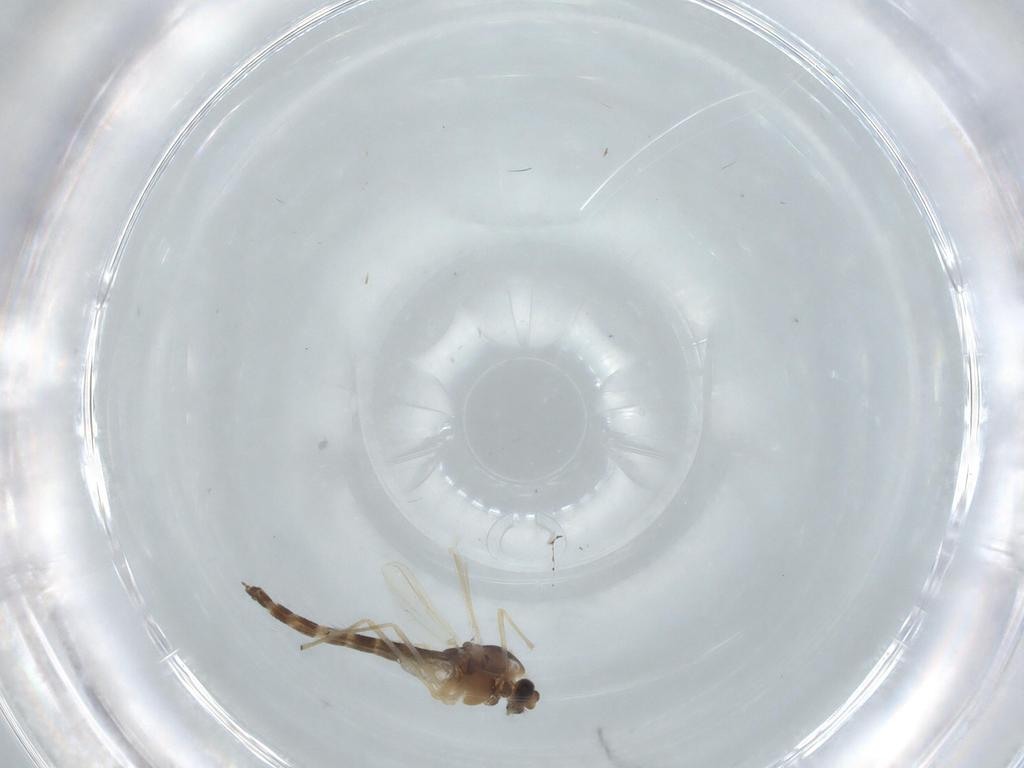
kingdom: Animalia
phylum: Arthropoda
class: Insecta
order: Diptera
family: Chironomidae
